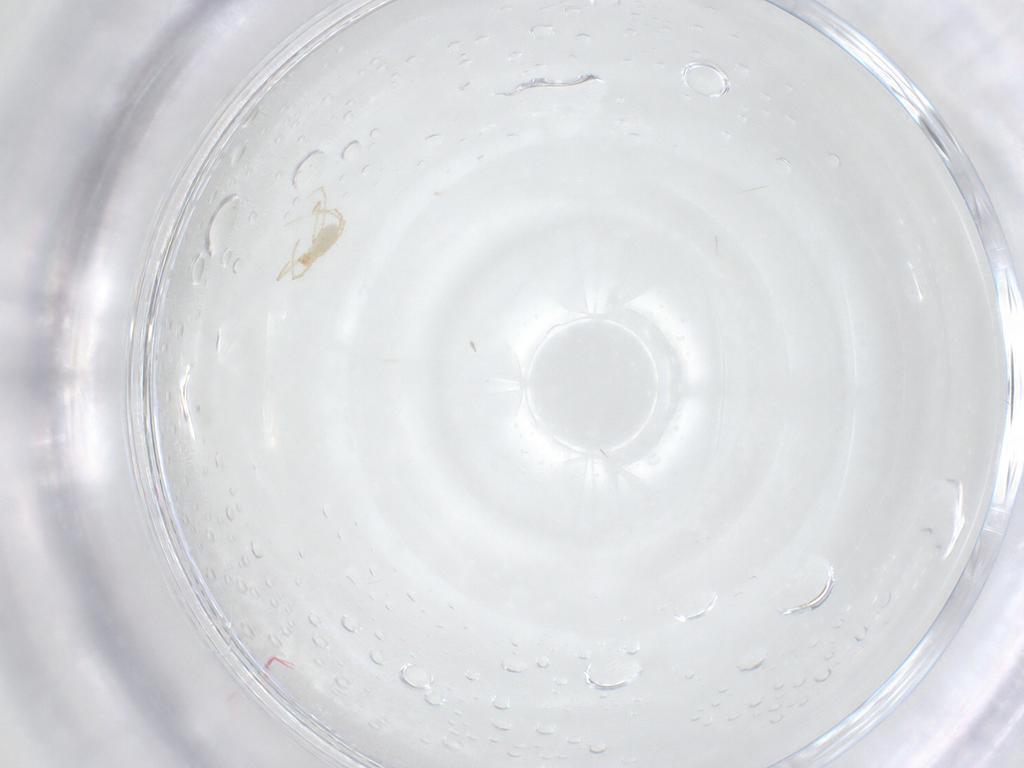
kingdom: Animalia
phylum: Arthropoda
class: Arachnida
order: Trombidiformes
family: Erythraeidae
